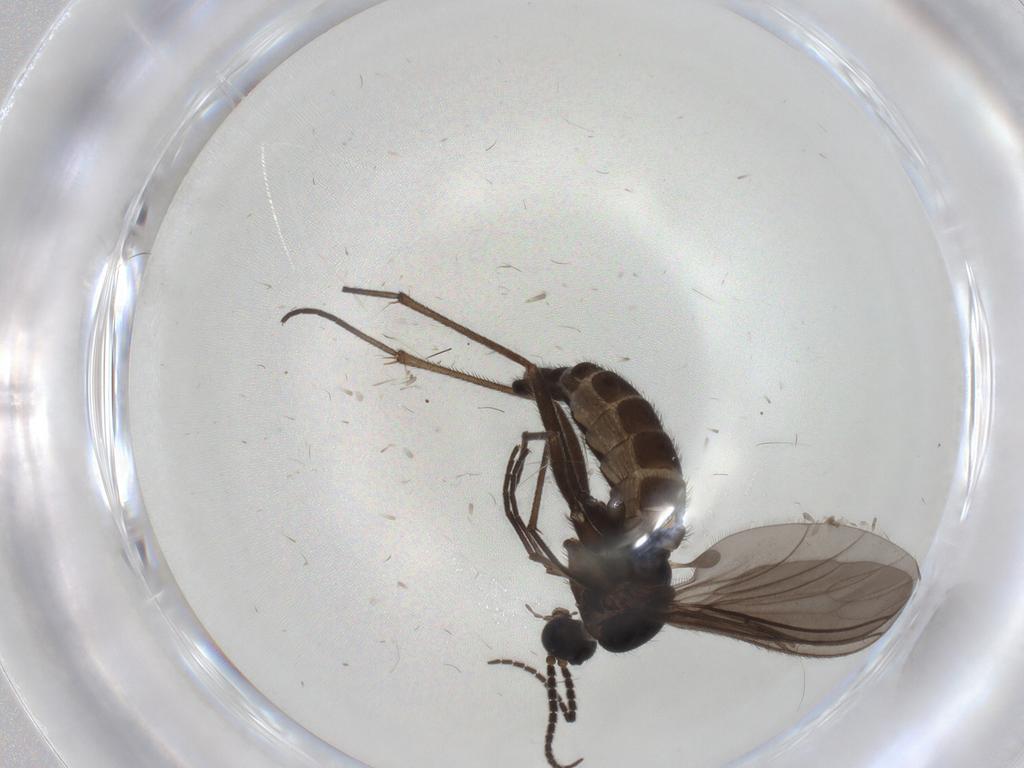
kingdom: Animalia
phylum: Arthropoda
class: Insecta
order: Diptera
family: Sciaridae
